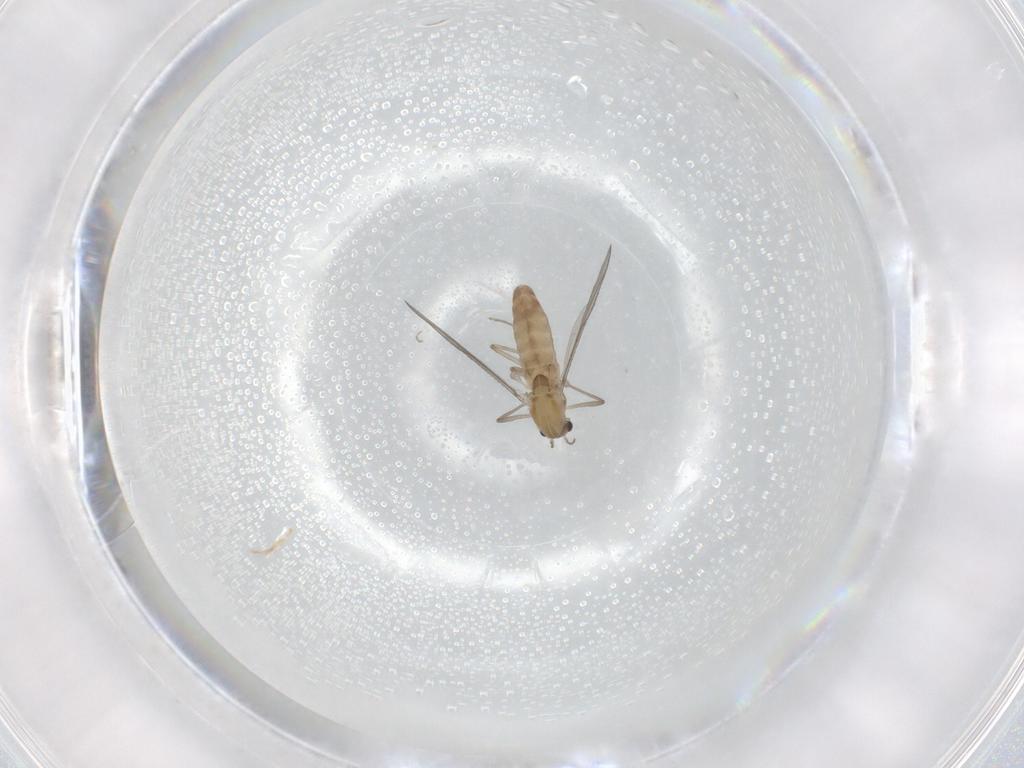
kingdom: Animalia
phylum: Arthropoda
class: Insecta
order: Diptera
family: Chironomidae
